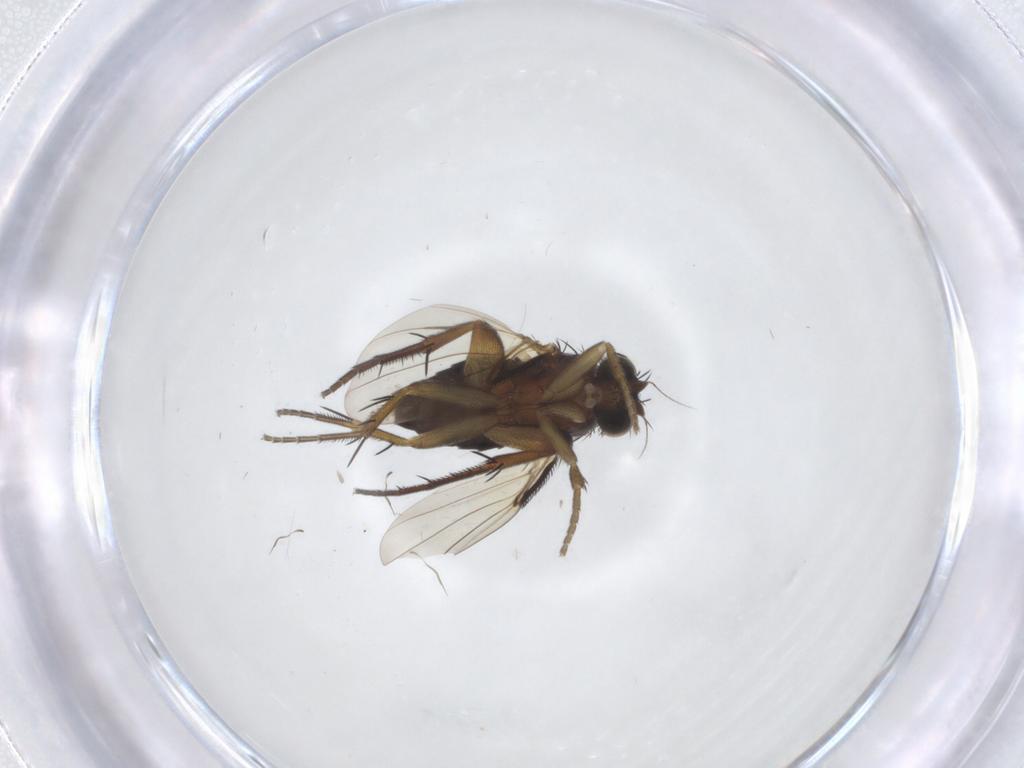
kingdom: Animalia
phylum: Arthropoda
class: Insecta
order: Diptera
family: Phoridae
